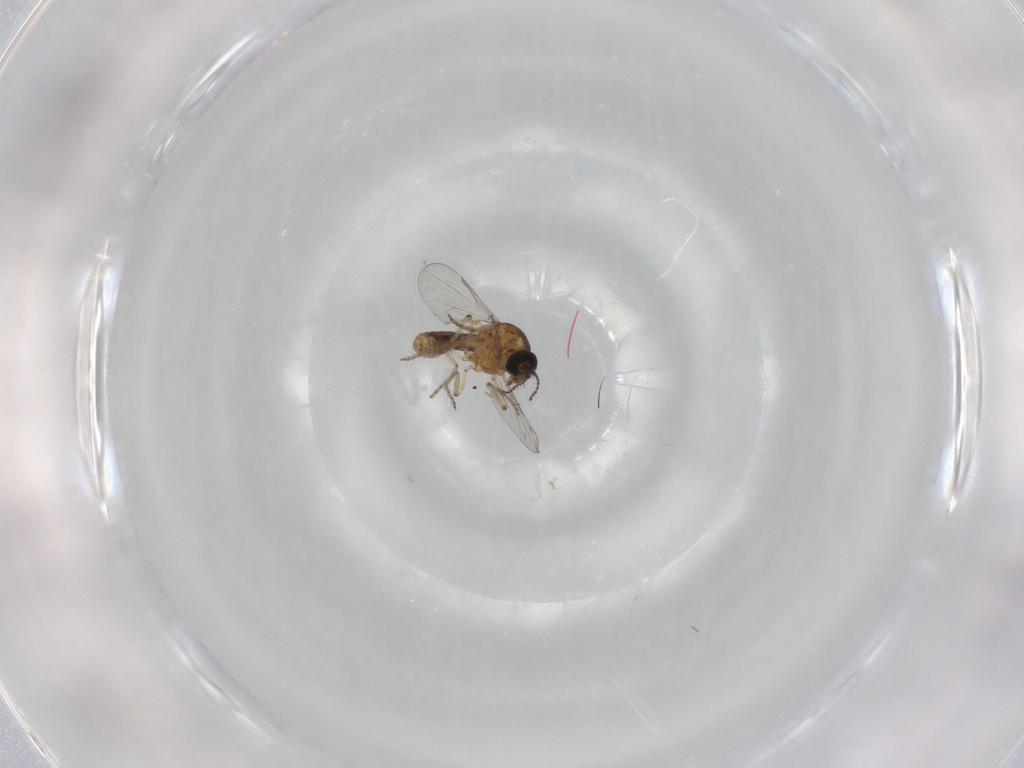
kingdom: Animalia
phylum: Arthropoda
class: Insecta
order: Diptera
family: Ceratopogonidae
